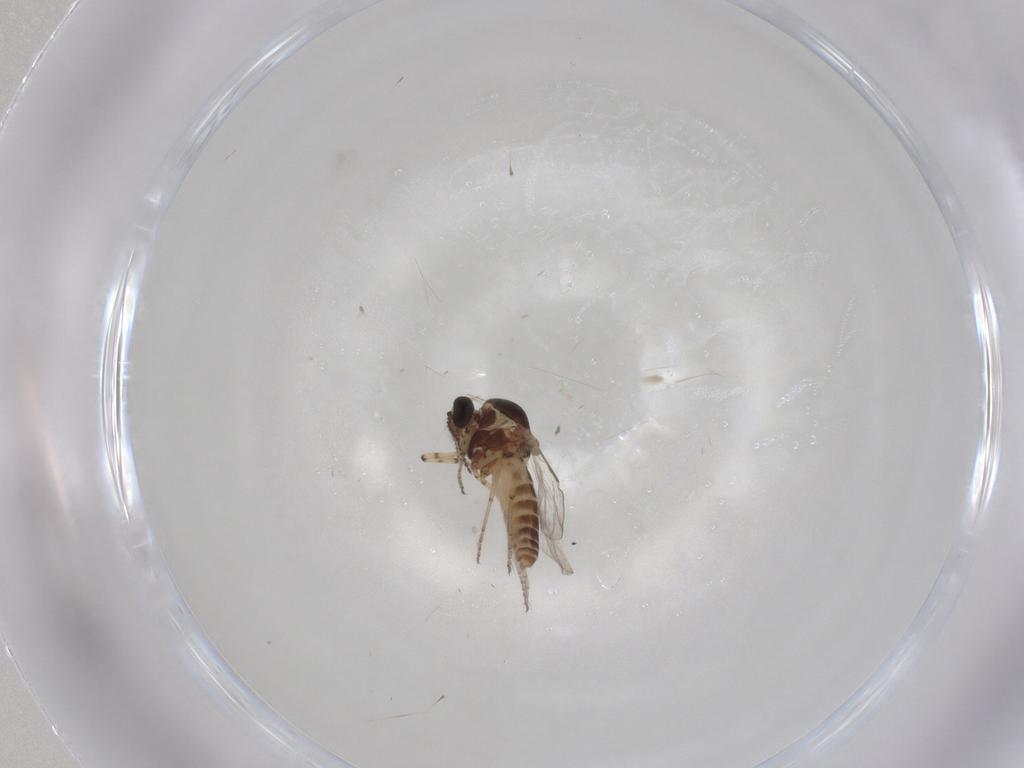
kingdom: Animalia
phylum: Arthropoda
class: Insecta
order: Diptera
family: Ceratopogonidae
